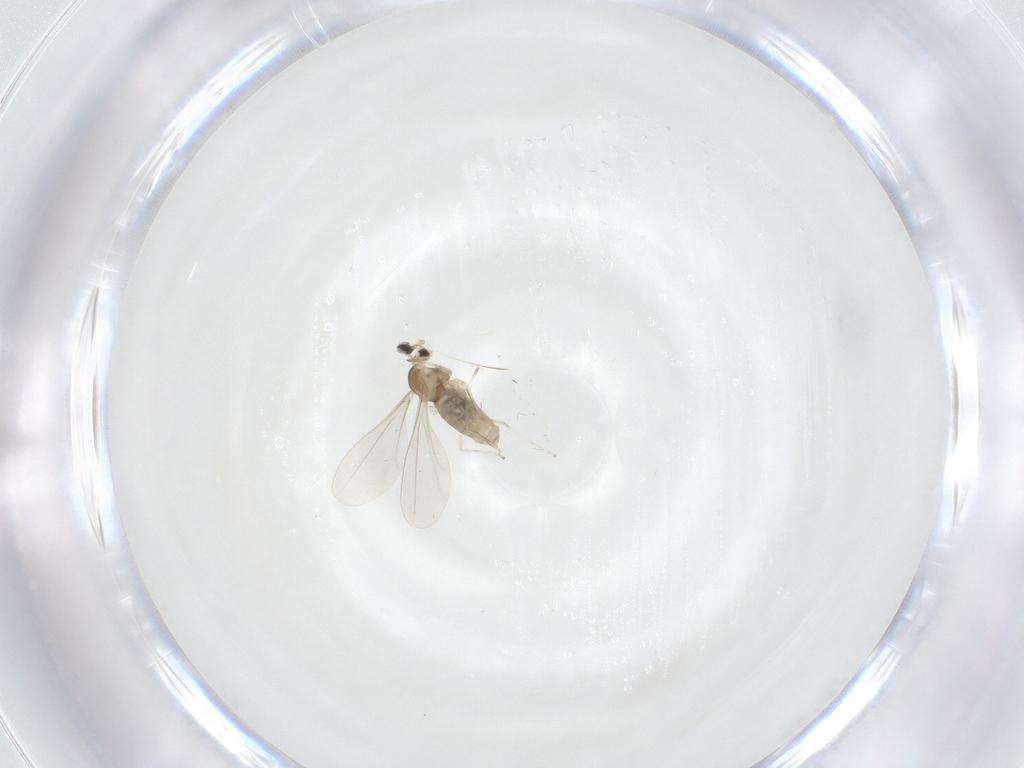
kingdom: Animalia
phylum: Arthropoda
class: Insecta
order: Diptera
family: Cecidomyiidae
